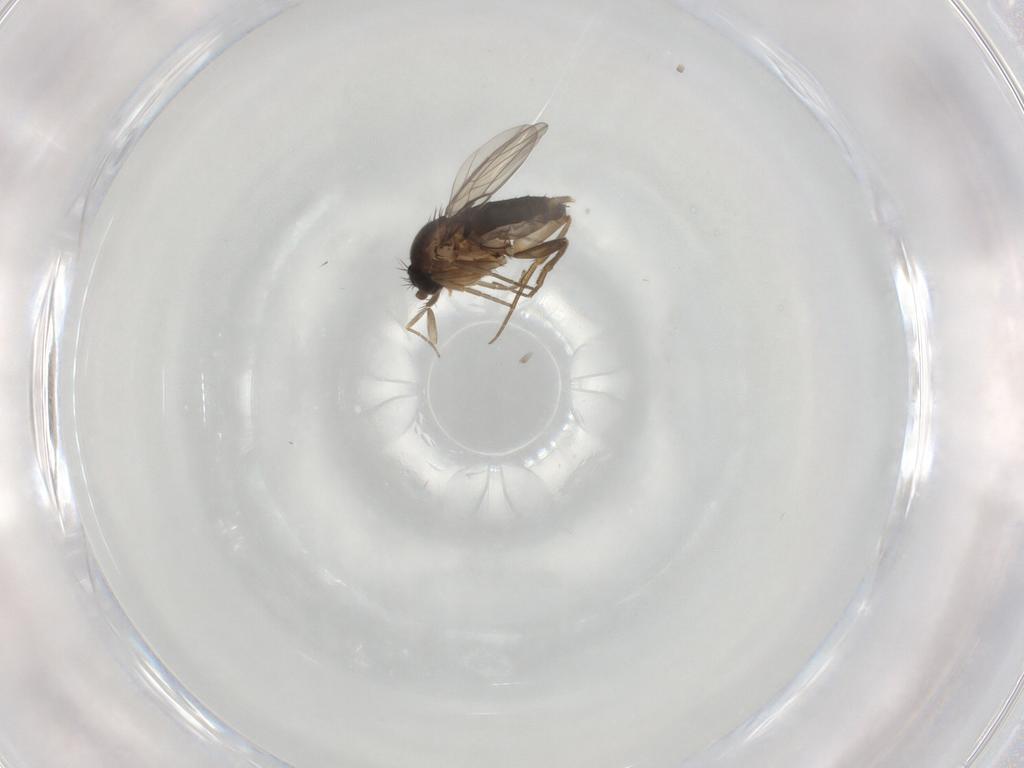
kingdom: Animalia
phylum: Arthropoda
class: Insecta
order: Diptera
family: Phoridae
